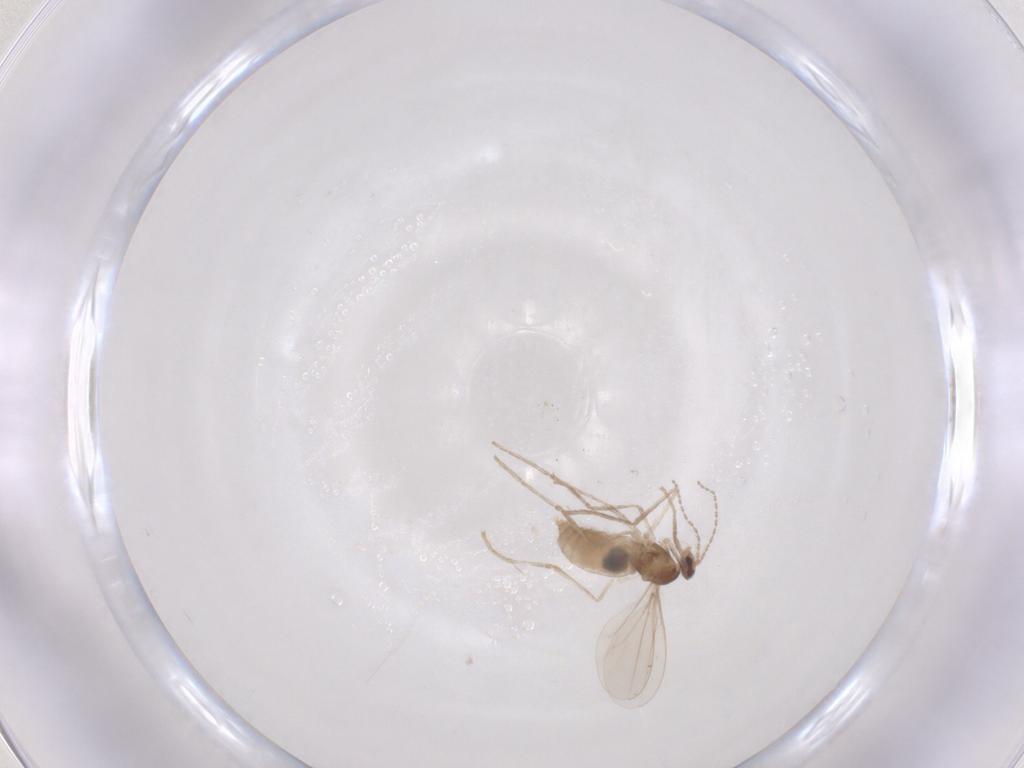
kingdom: Animalia
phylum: Arthropoda
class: Insecta
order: Diptera
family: Cecidomyiidae
